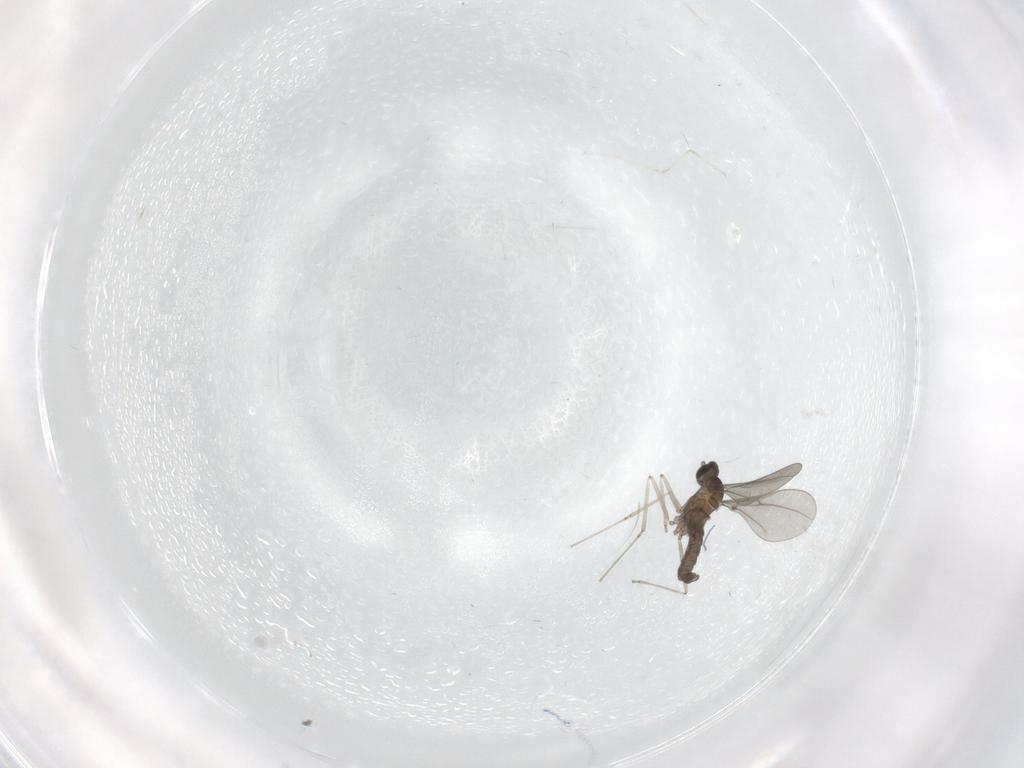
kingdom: Animalia
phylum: Arthropoda
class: Insecta
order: Diptera
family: Cecidomyiidae
